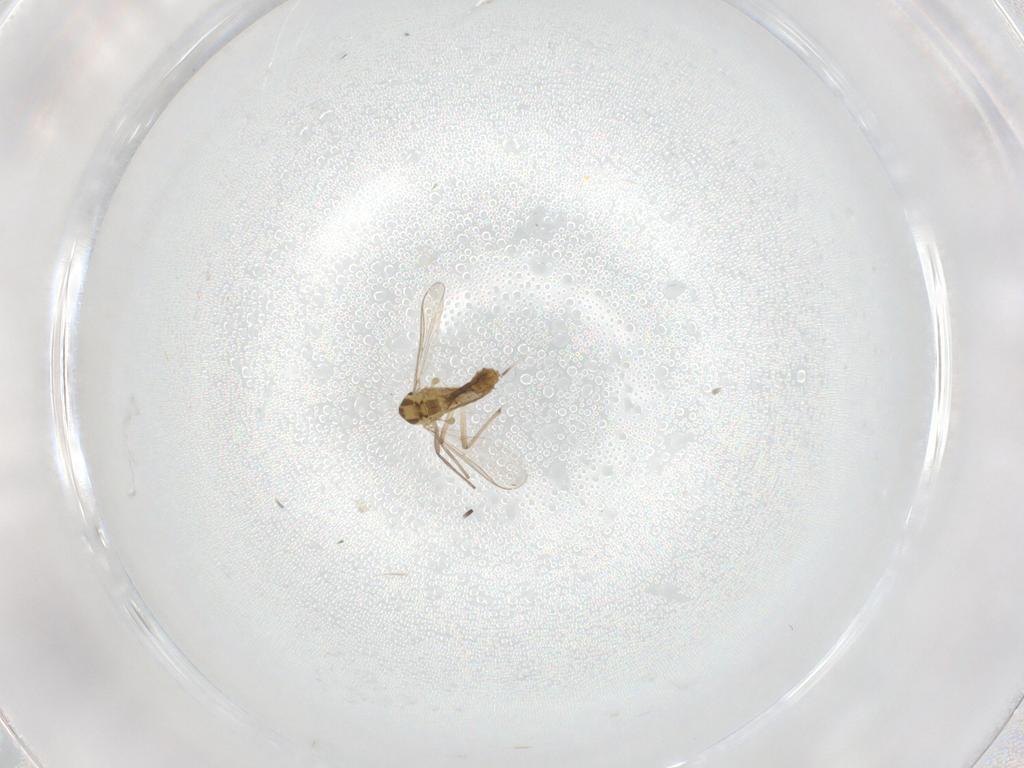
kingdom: Animalia
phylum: Arthropoda
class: Insecta
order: Diptera
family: Chironomidae
